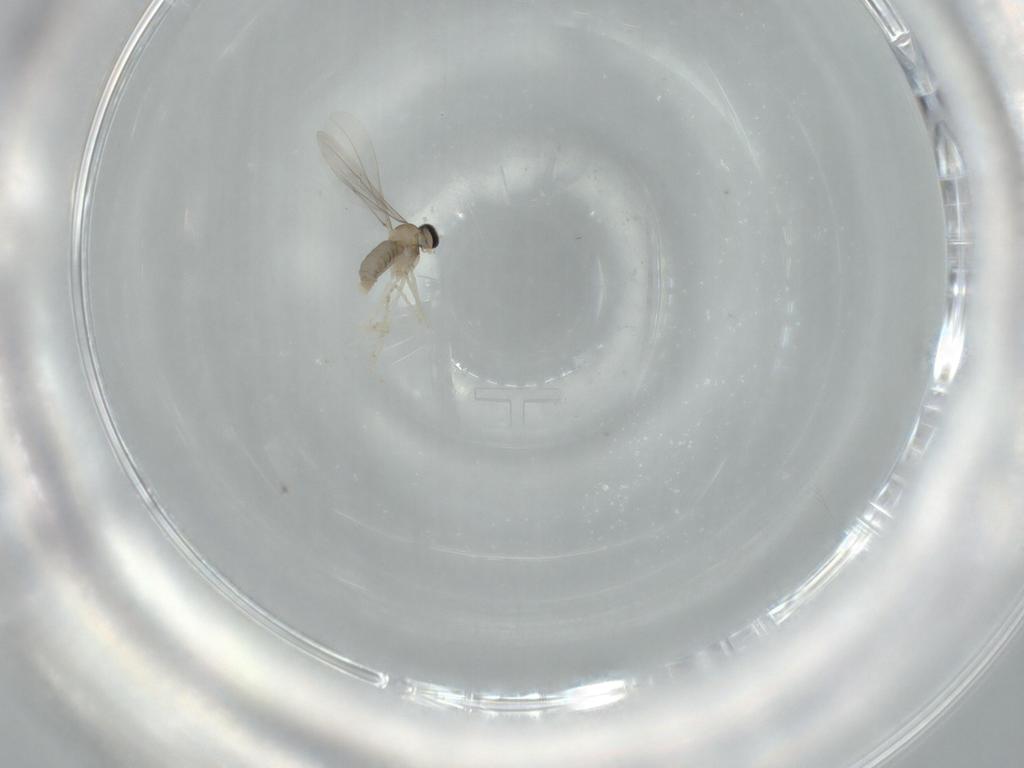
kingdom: Animalia
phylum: Arthropoda
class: Insecta
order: Diptera
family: Cecidomyiidae
